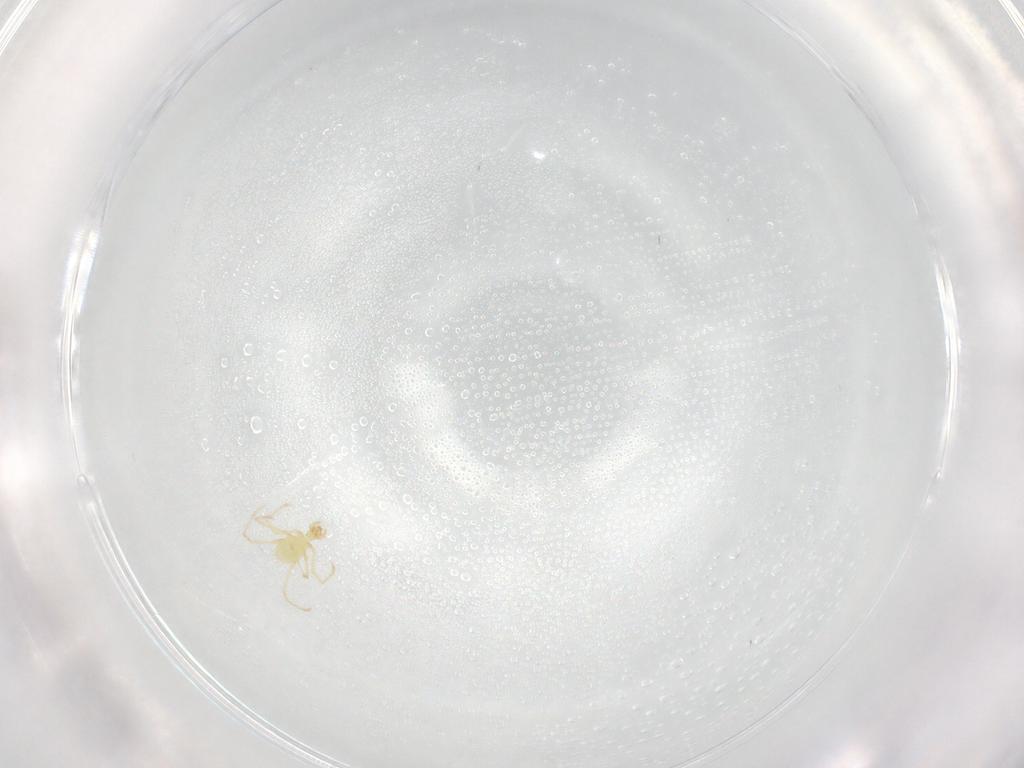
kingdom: Animalia
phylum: Arthropoda
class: Arachnida
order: Trombidiformes
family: Erythraeidae
